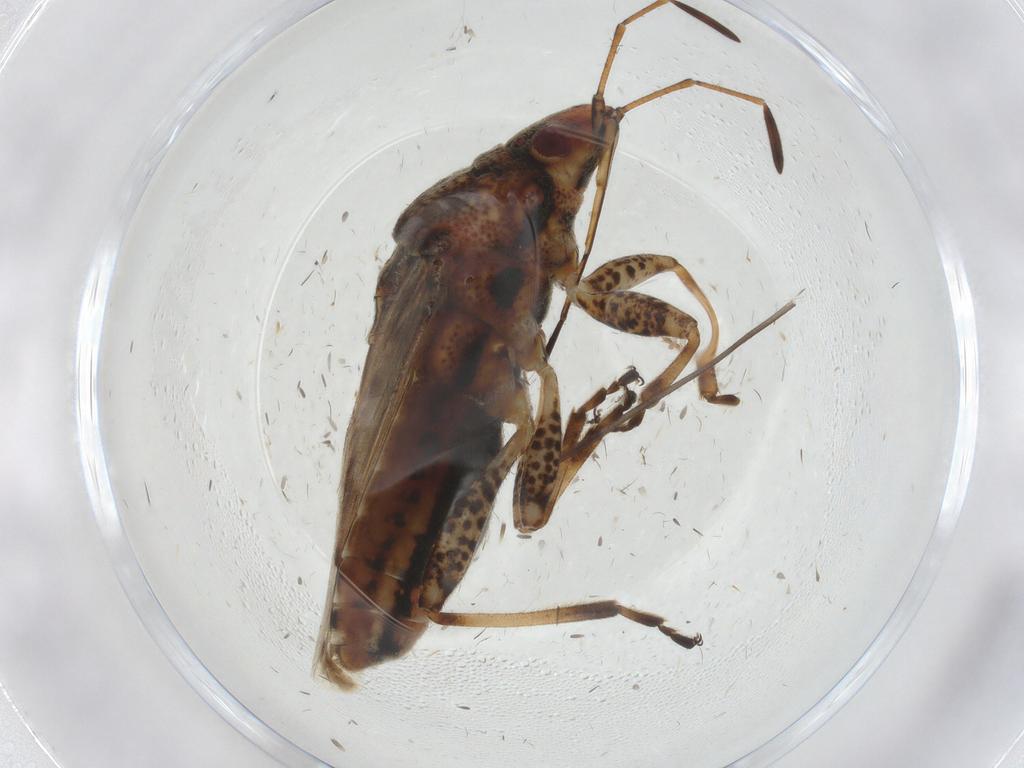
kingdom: Animalia
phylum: Arthropoda
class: Insecta
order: Hemiptera
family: Lygaeidae
